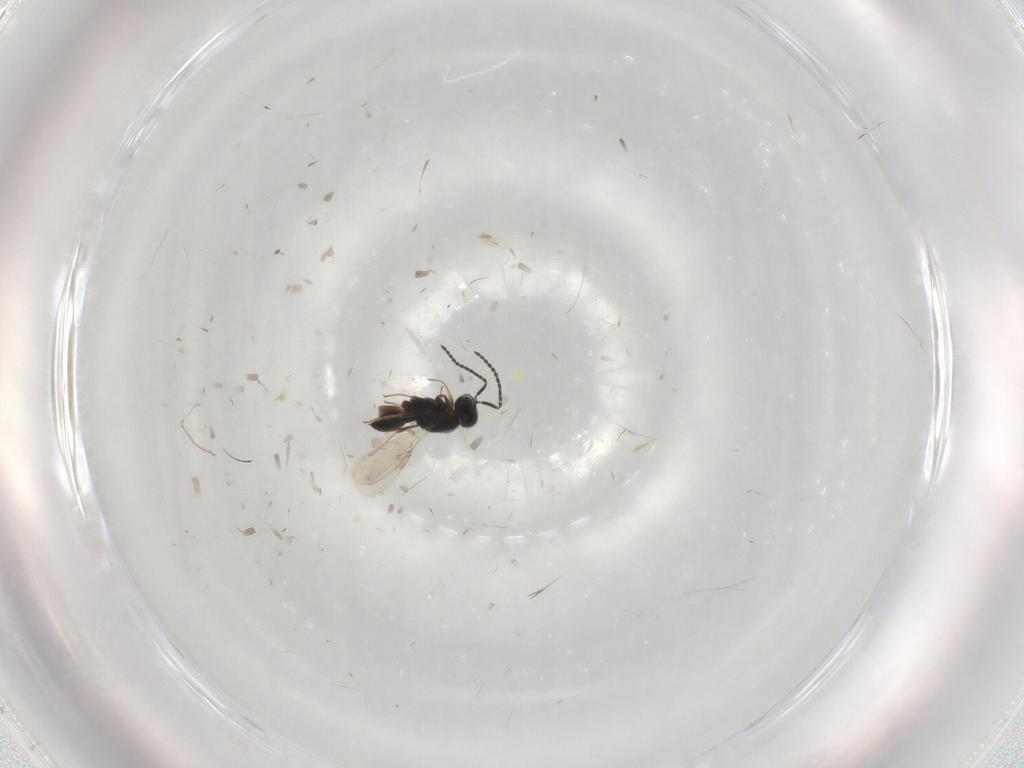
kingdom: Animalia
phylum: Arthropoda
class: Insecta
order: Hymenoptera
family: Scelionidae
